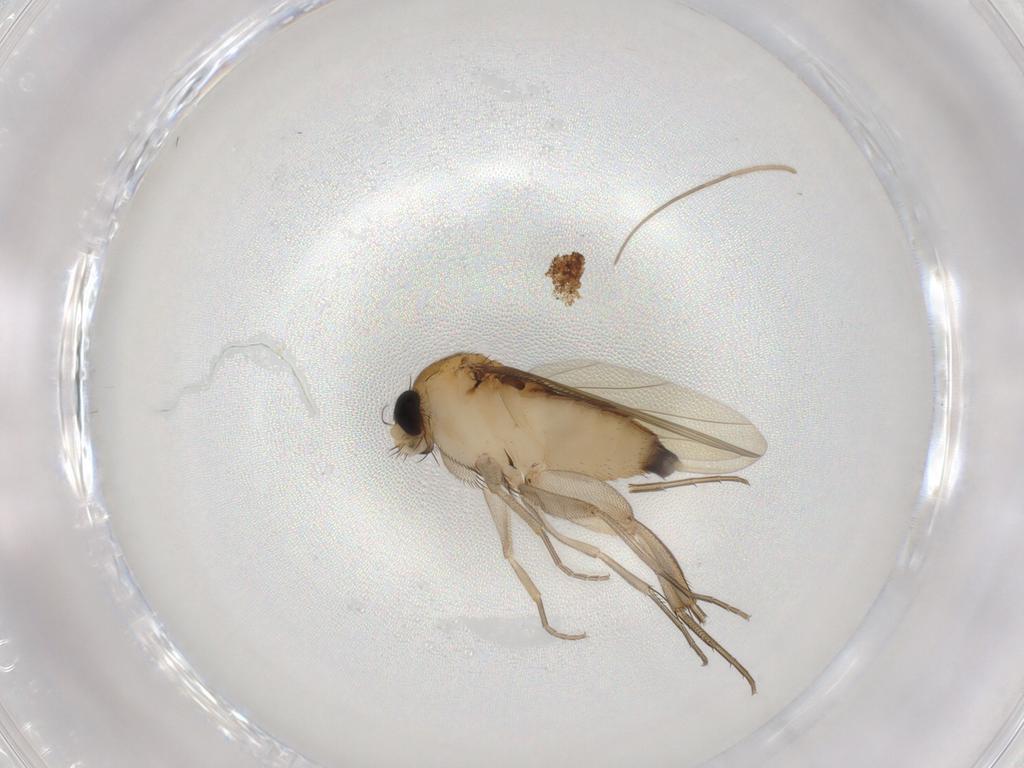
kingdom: Animalia
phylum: Arthropoda
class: Insecta
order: Diptera
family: Phoridae
